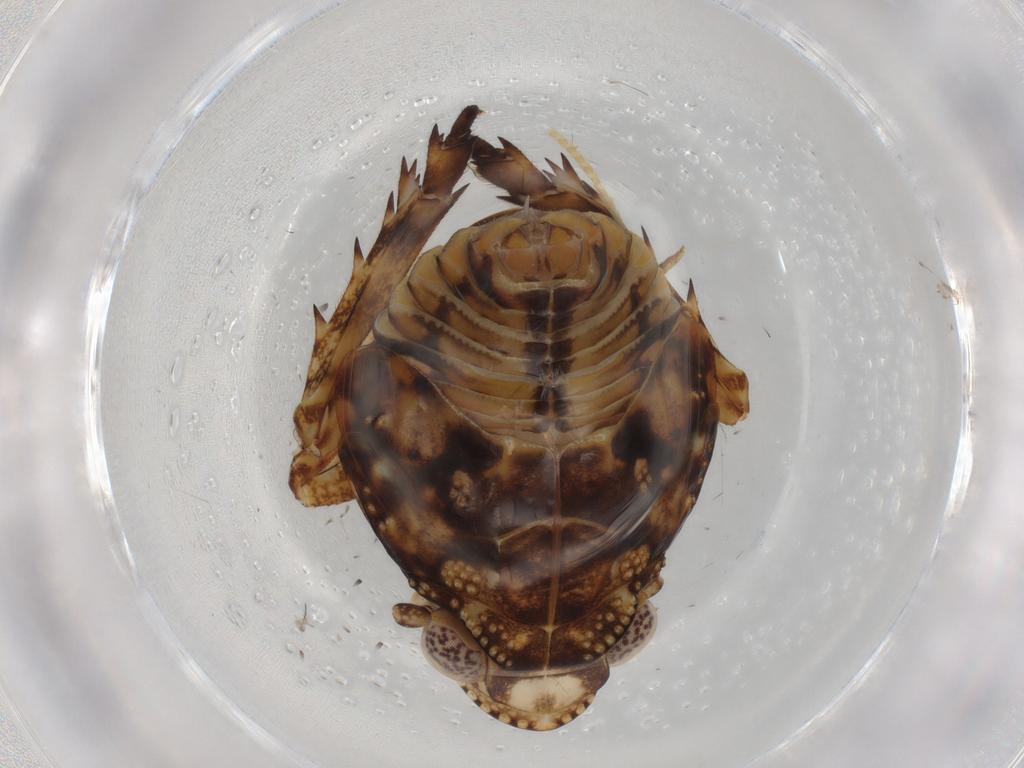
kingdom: Animalia
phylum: Arthropoda
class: Insecta
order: Hemiptera
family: Eurybrachidae
